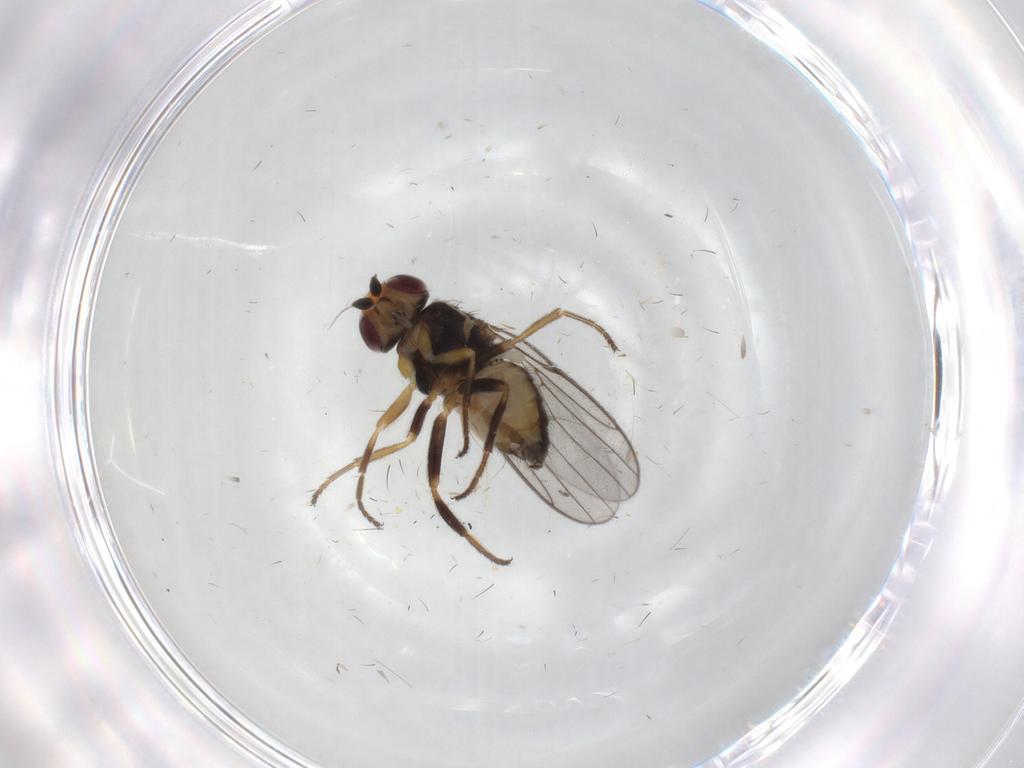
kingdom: Animalia
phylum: Arthropoda
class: Insecta
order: Diptera
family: Chloropidae
